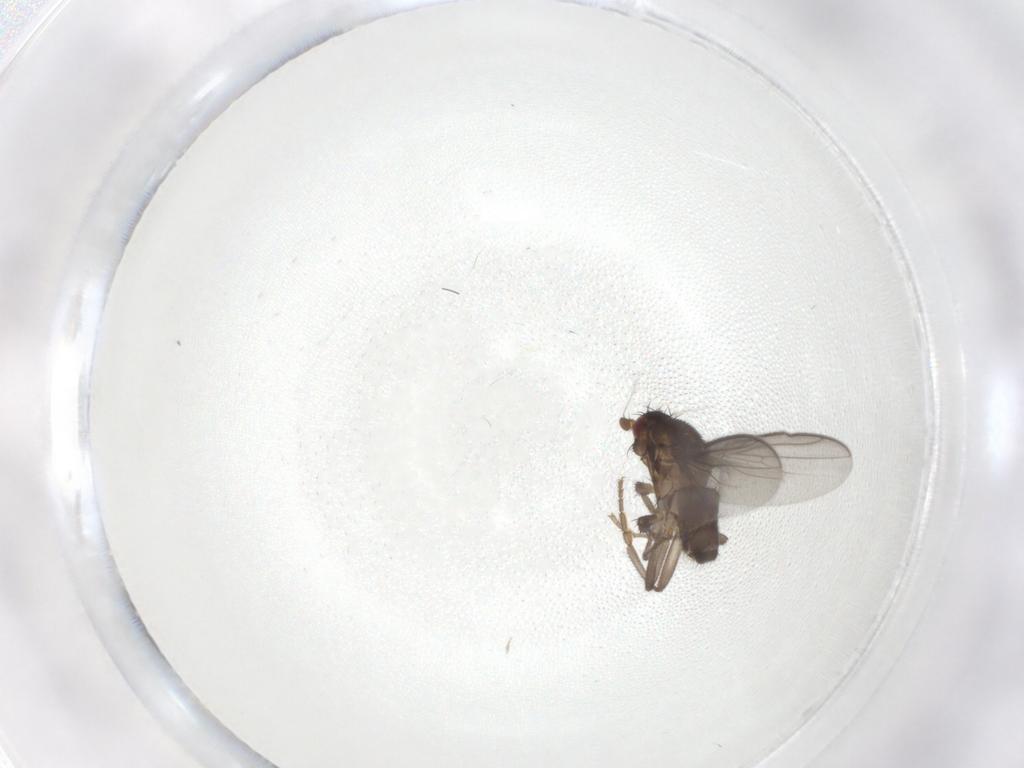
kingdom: Animalia
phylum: Arthropoda
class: Insecta
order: Diptera
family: Sphaeroceridae
